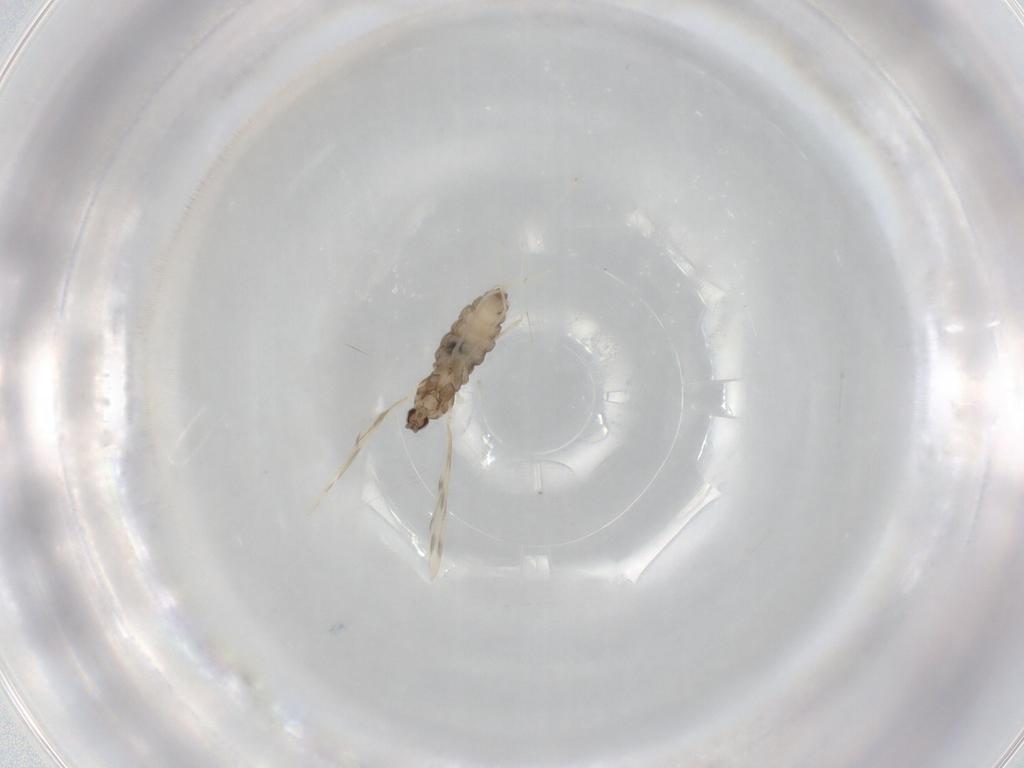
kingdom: Animalia
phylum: Arthropoda
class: Insecta
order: Diptera
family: Cecidomyiidae
